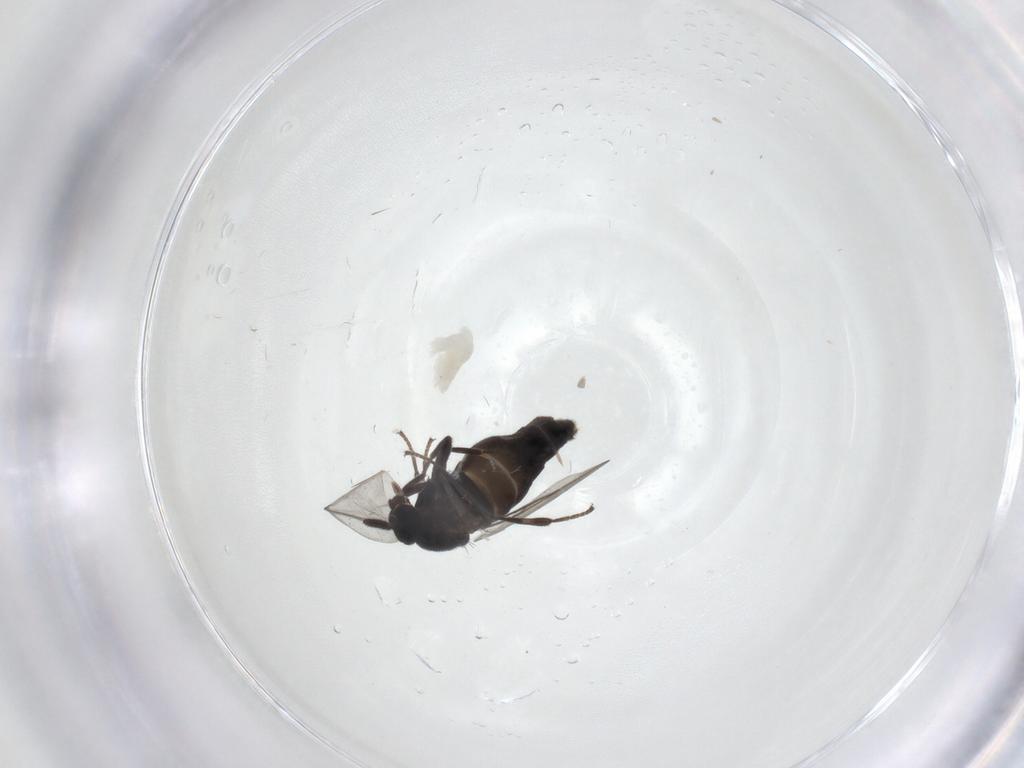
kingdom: Animalia
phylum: Arthropoda
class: Insecta
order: Diptera
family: Scatopsidae
